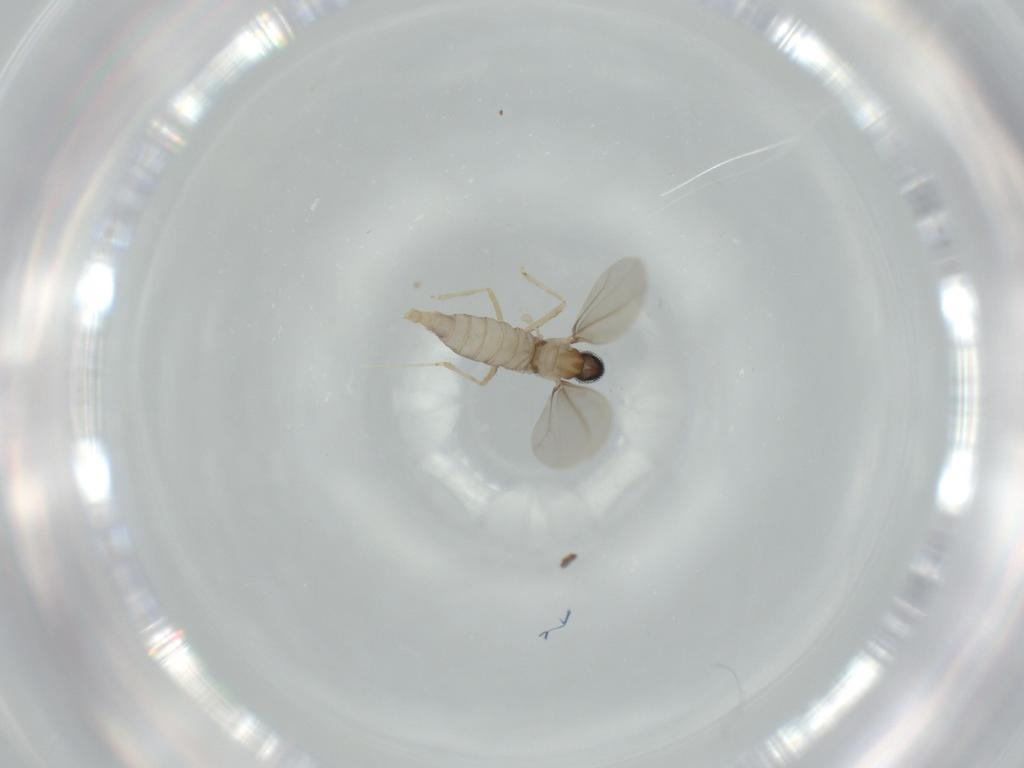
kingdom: Animalia
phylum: Arthropoda
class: Insecta
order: Diptera
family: Cecidomyiidae
